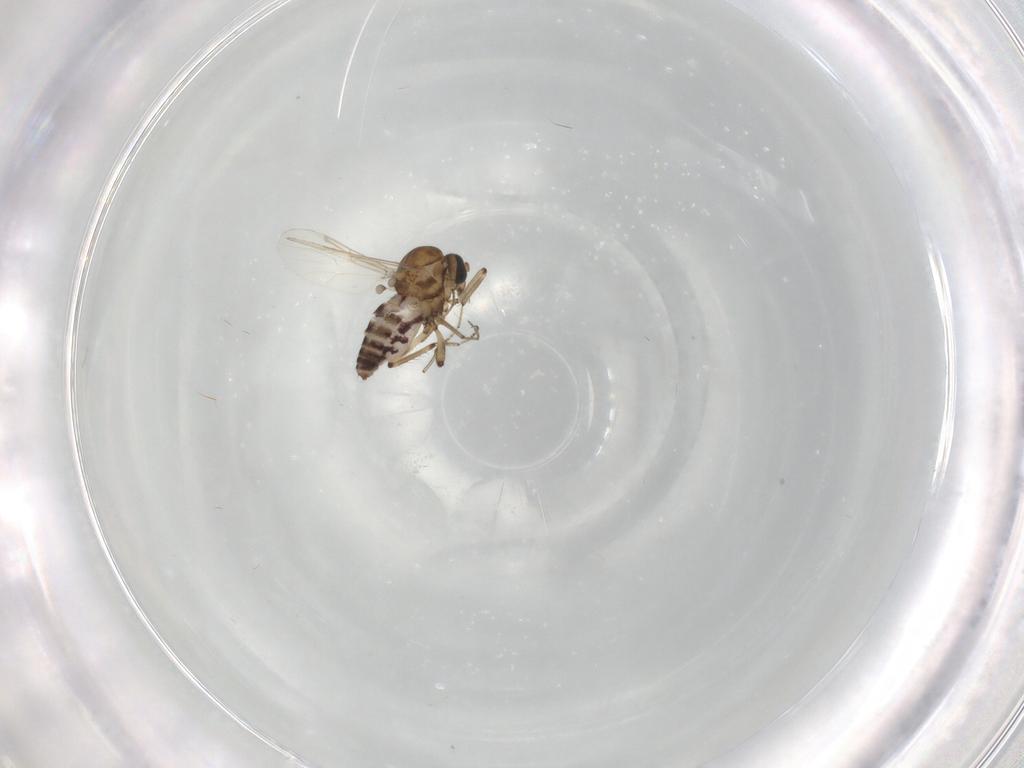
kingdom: Animalia
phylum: Arthropoda
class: Insecta
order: Diptera
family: Ceratopogonidae
